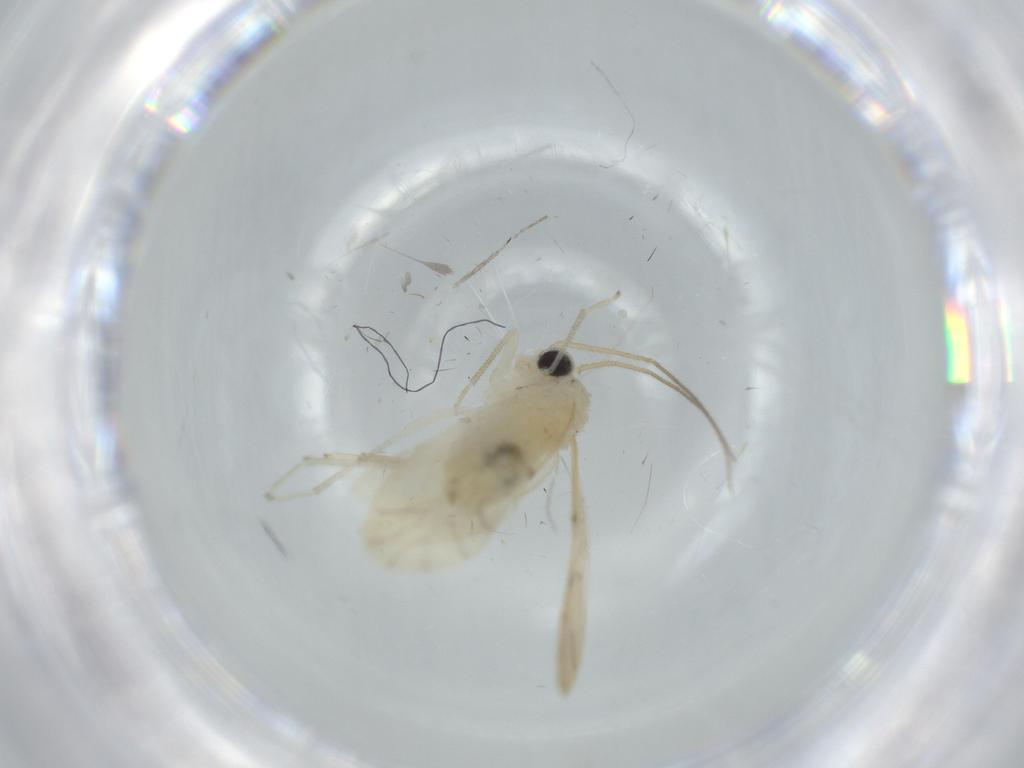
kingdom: Animalia
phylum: Arthropoda
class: Insecta
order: Psocodea
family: Caeciliusidae
